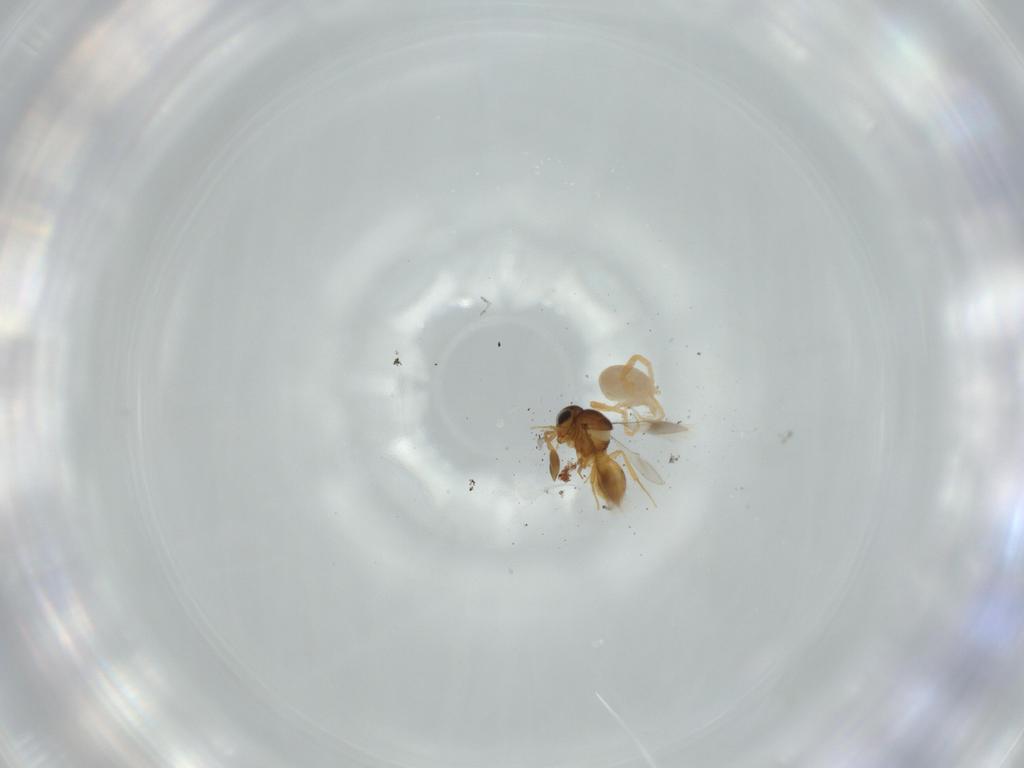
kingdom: Animalia
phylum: Arthropoda
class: Insecta
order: Hymenoptera
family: Scelionidae
